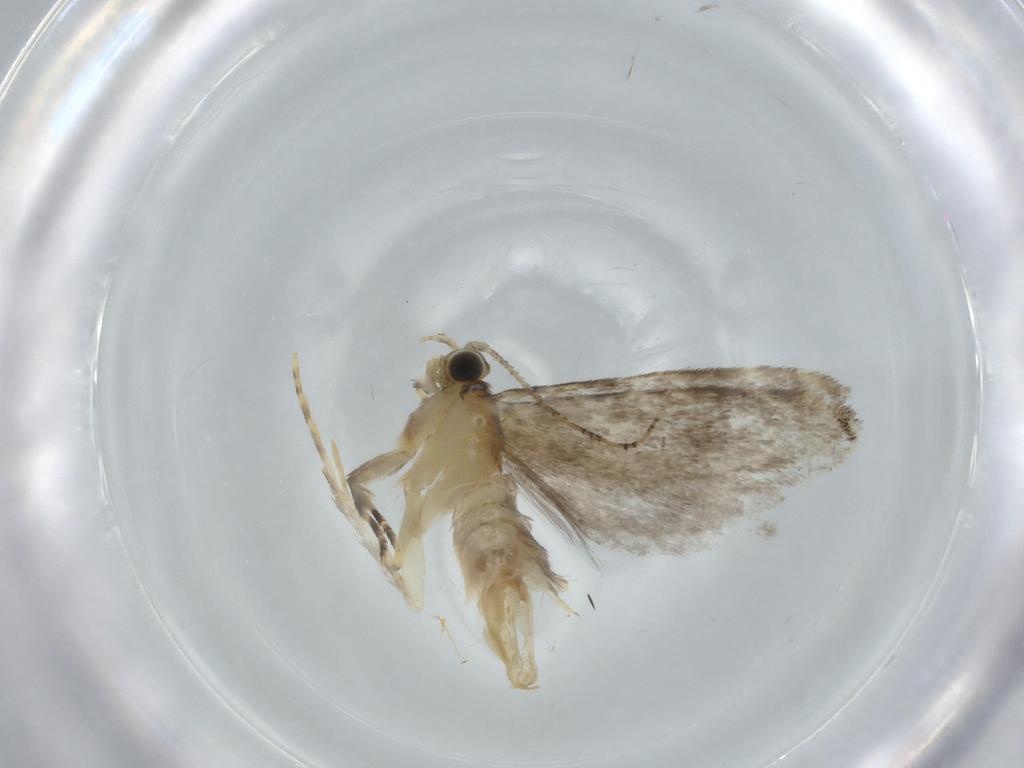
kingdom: Animalia
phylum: Arthropoda
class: Insecta
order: Lepidoptera
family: Tineidae
